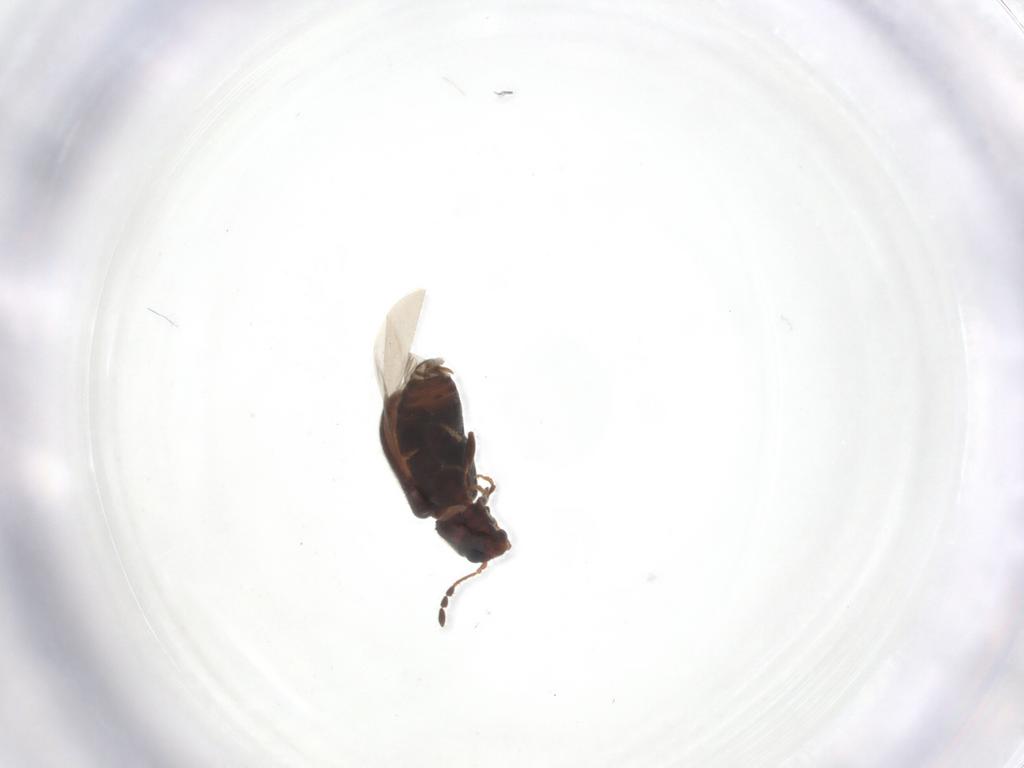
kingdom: Animalia
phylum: Arthropoda
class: Insecta
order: Coleoptera
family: Ptinidae
